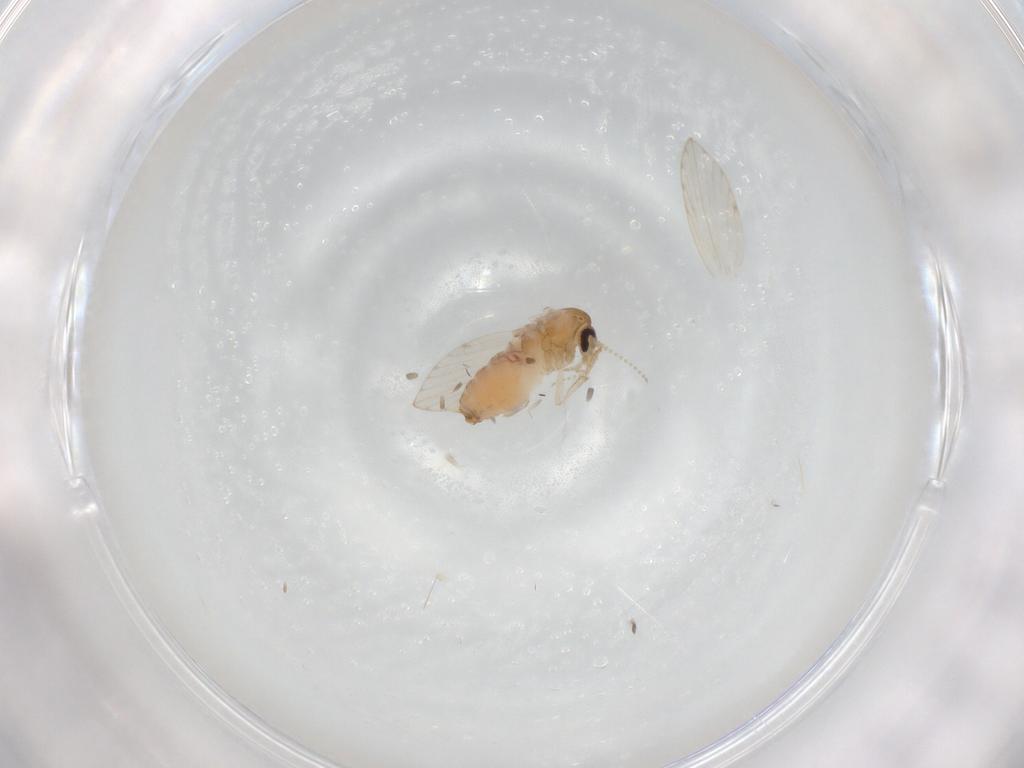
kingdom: Animalia
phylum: Arthropoda
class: Insecta
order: Diptera
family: Psychodidae
